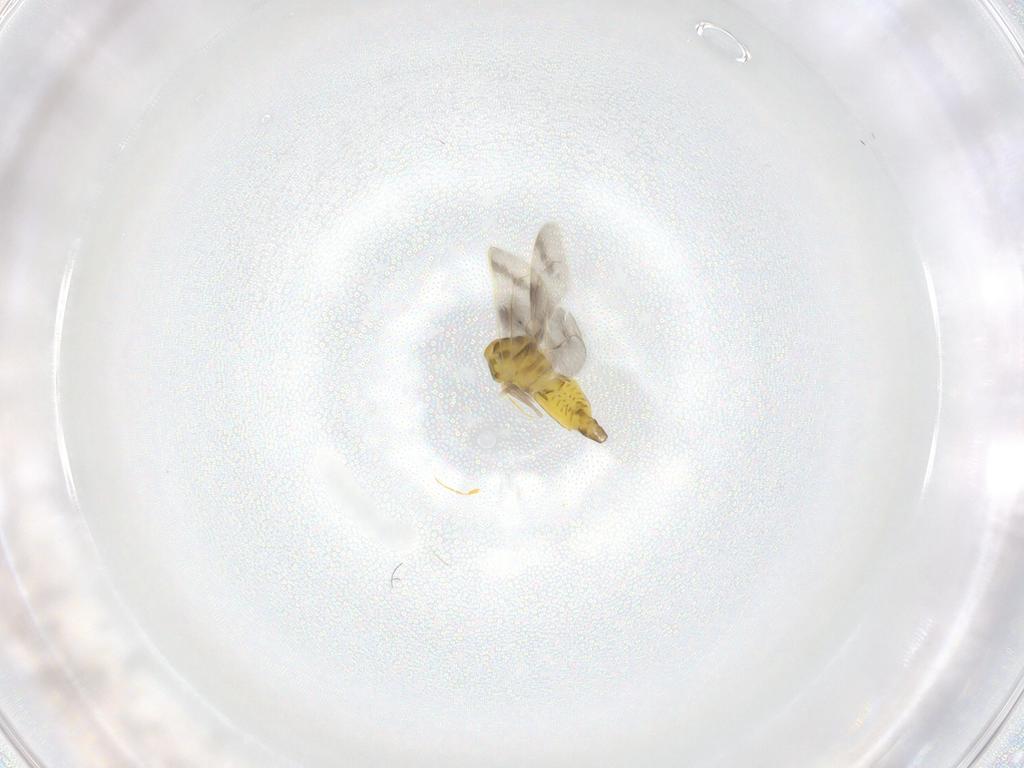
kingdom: Animalia
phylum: Arthropoda
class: Insecta
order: Hemiptera
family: Aleyrodidae
